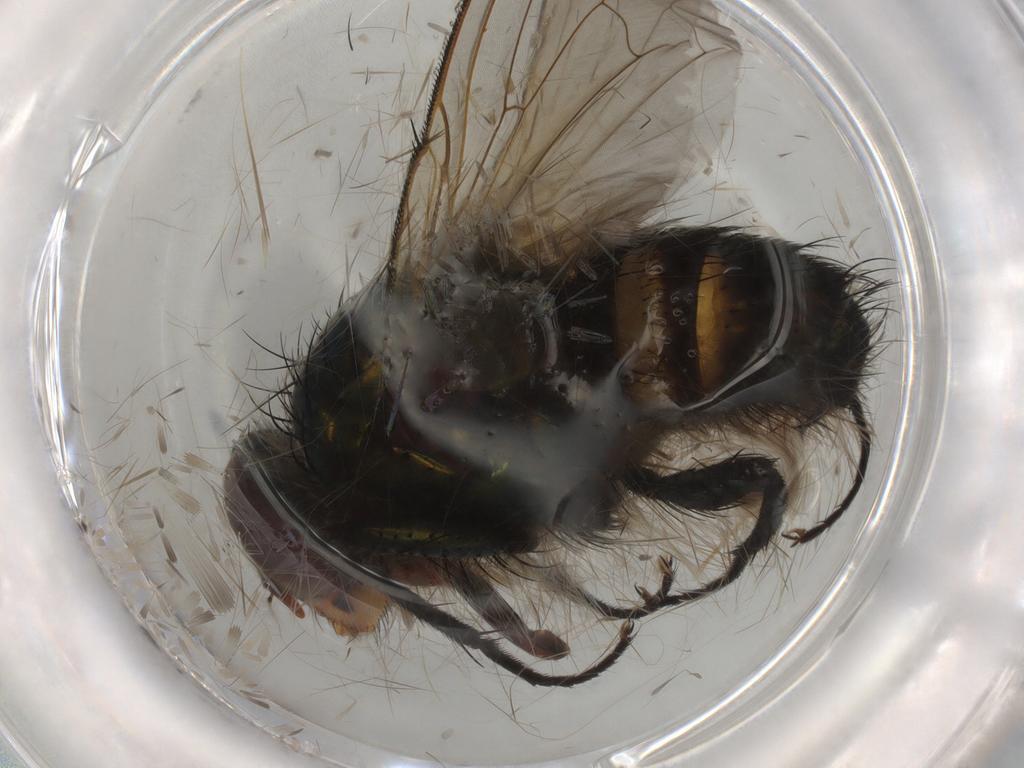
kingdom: Animalia
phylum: Arthropoda
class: Insecta
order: Diptera
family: Calliphoridae
